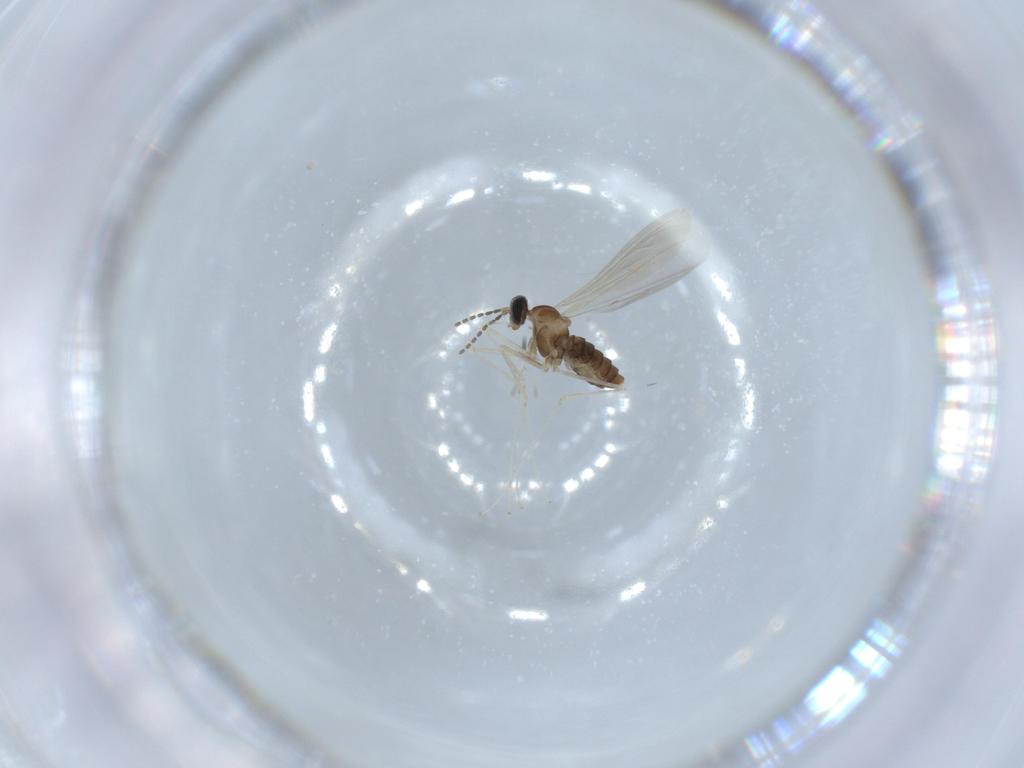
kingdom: Animalia
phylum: Arthropoda
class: Insecta
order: Diptera
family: Cecidomyiidae
